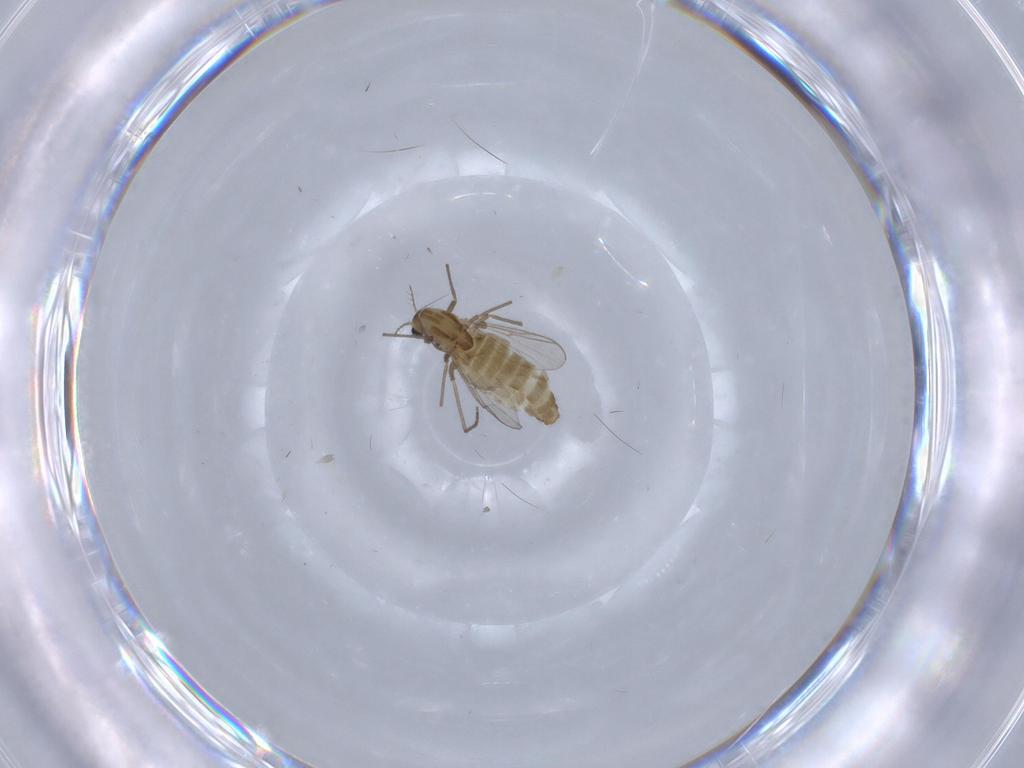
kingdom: Animalia
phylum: Arthropoda
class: Insecta
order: Diptera
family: Chironomidae
